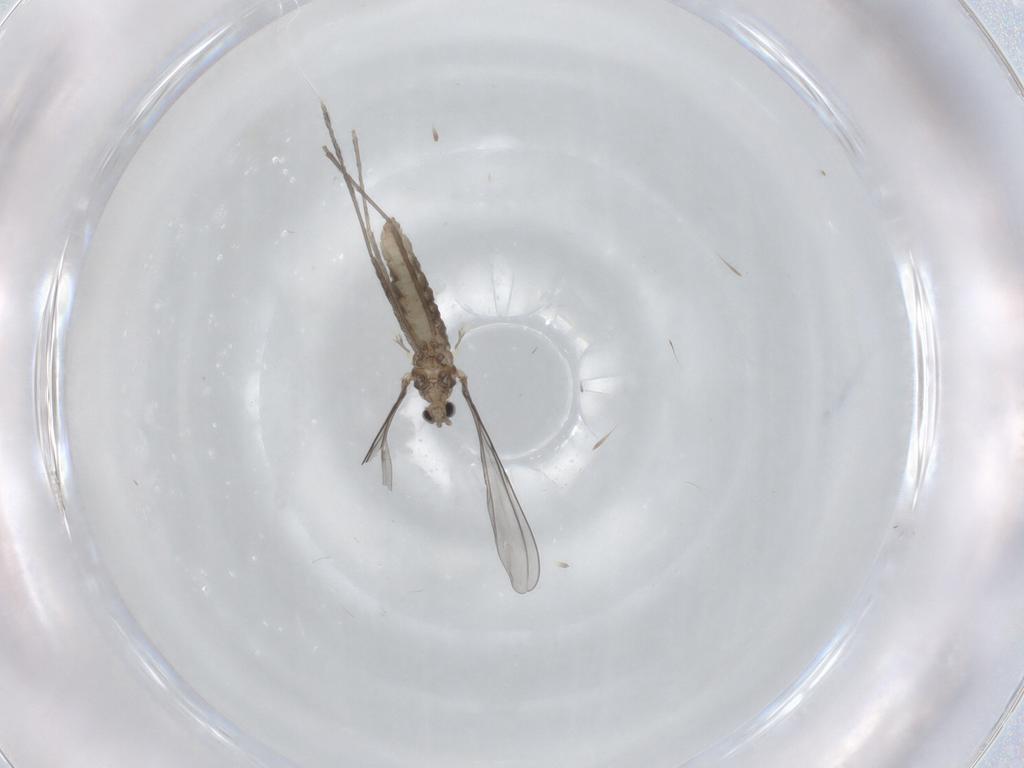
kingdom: Animalia
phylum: Arthropoda
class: Insecta
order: Diptera
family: Cecidomyiidae
